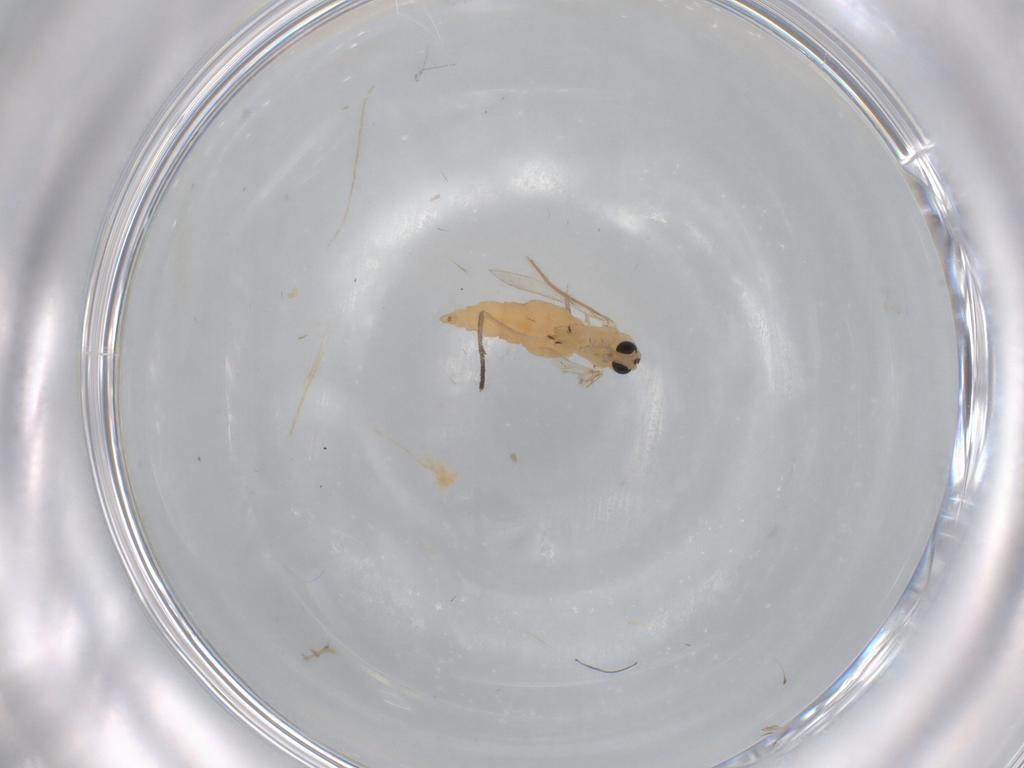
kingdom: Animalia
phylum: Arthropoda
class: Insecta
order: Diptera
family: Sciaridae
